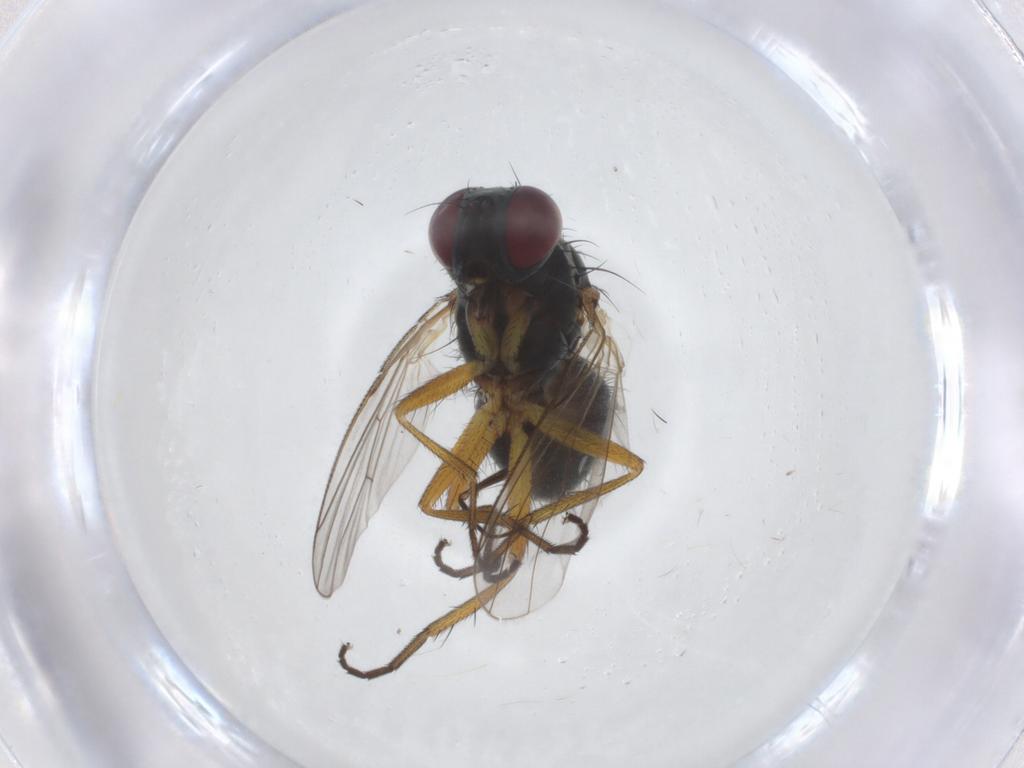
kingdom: Animalia
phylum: Arthropoda
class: Insecta
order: Diptera
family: Muscidae
